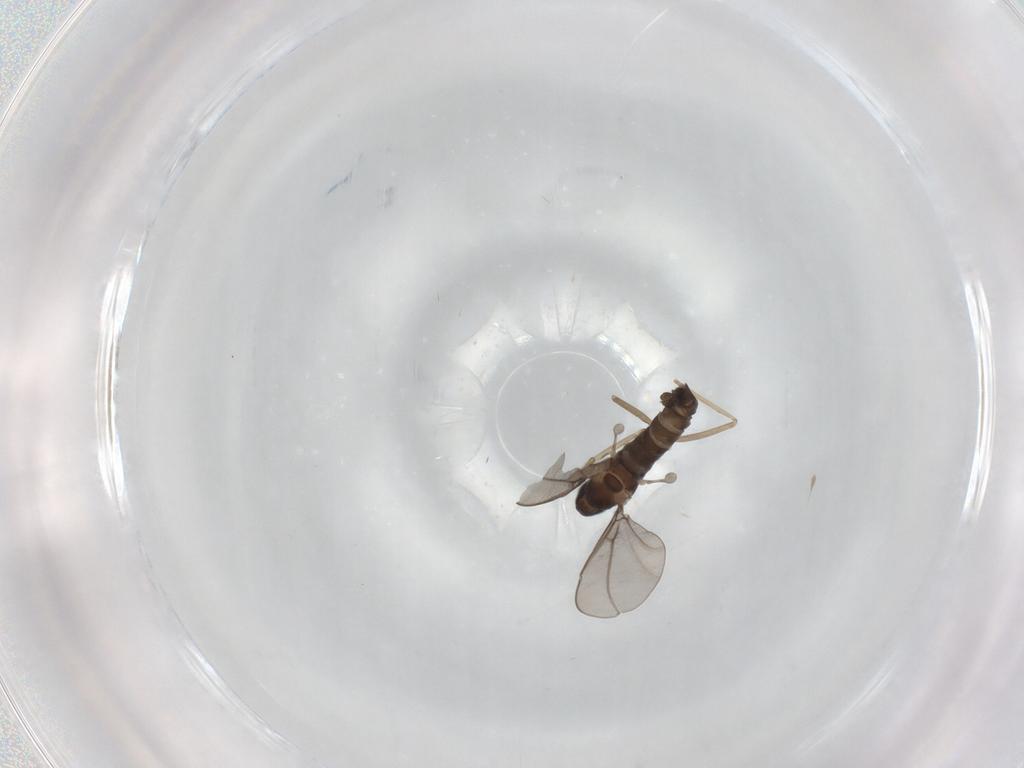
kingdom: Animalia
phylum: Arthropoda
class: Insecta
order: Diptera
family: Cecidomyiidae
